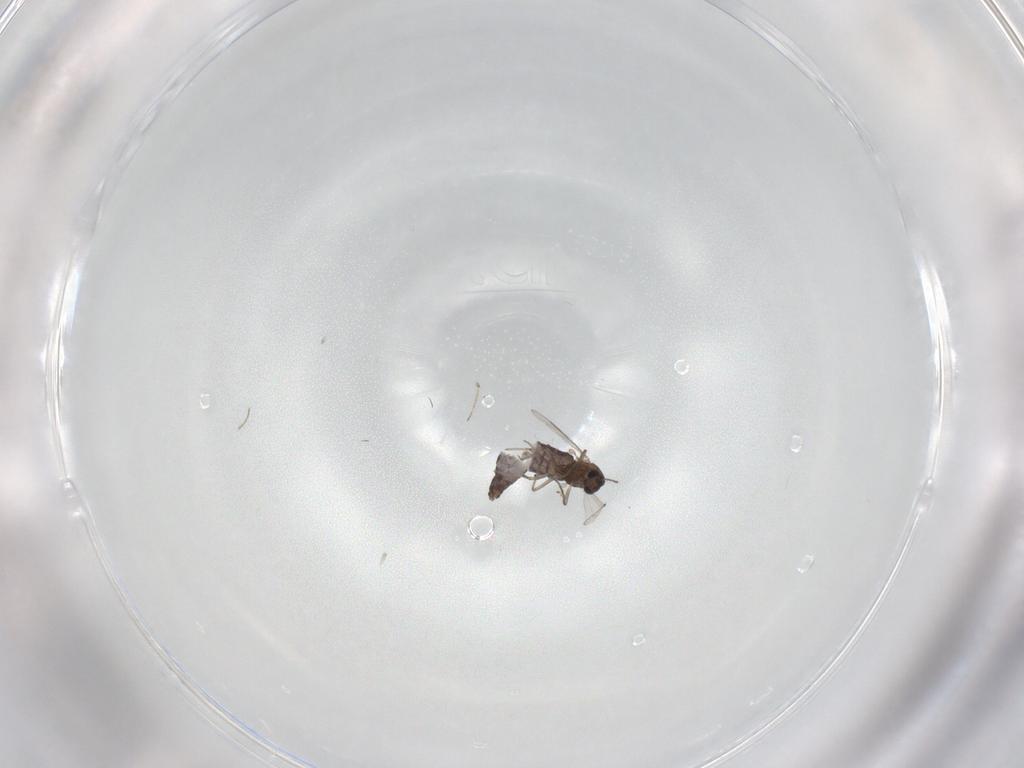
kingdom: Animalia
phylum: Arthropoda
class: Insecta
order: Diptera
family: Chironomidae
